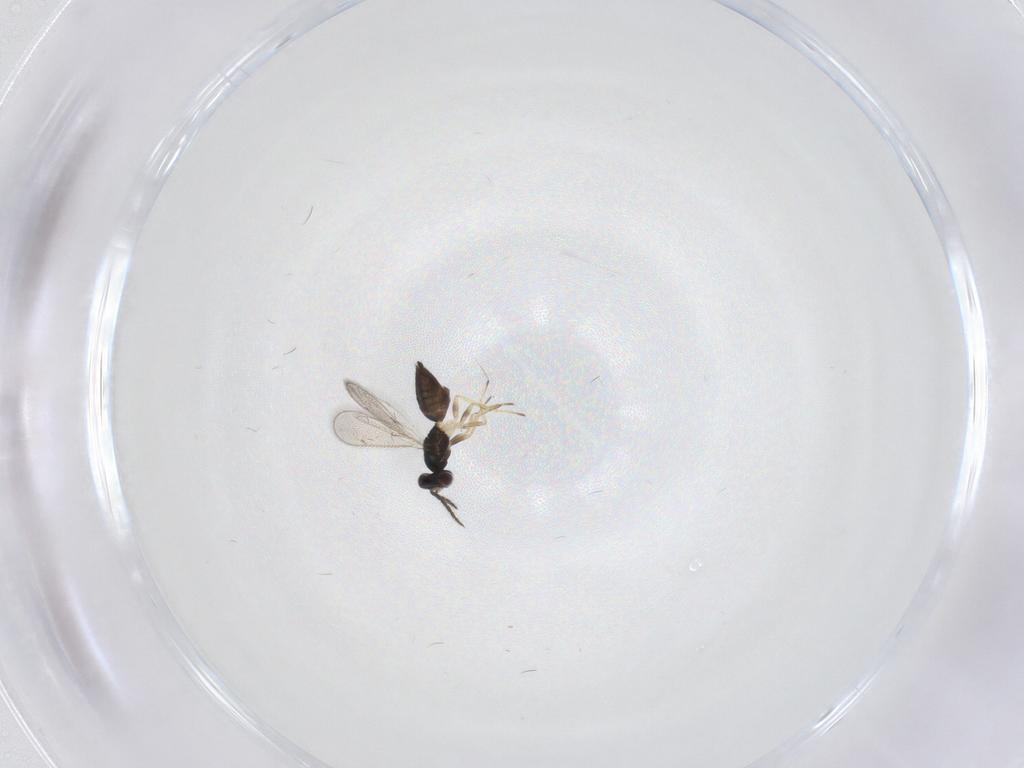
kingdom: Animalia
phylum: Arthropoda
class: Insecta
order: Hymenoptera
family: Eulophidae
